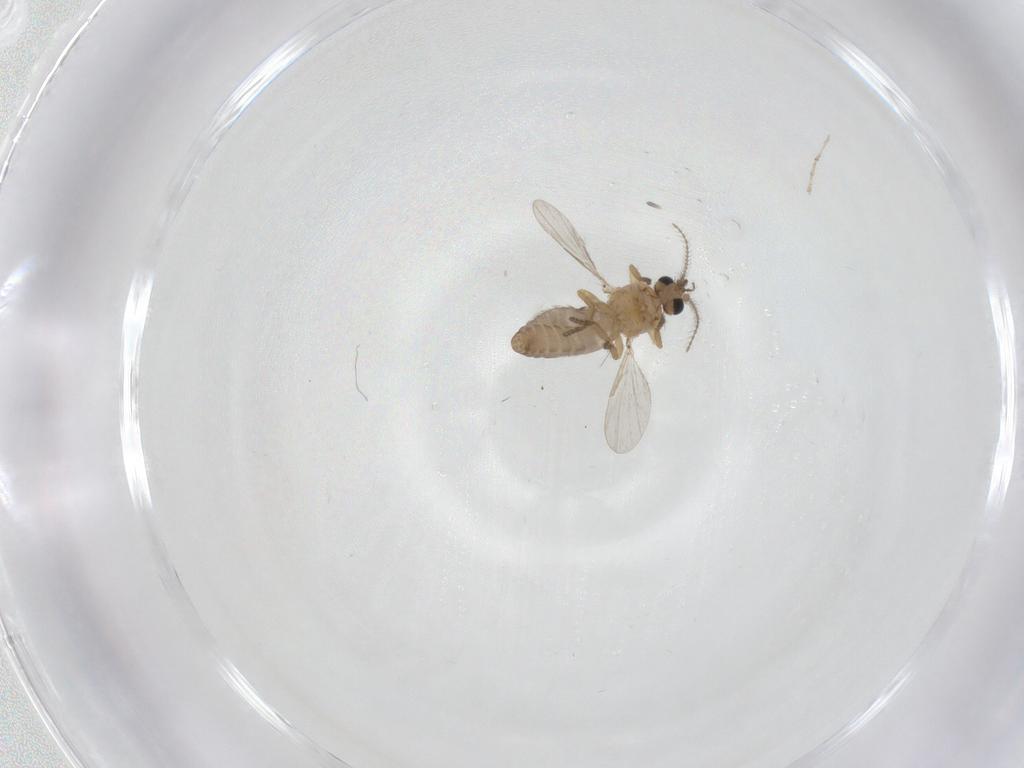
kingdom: Animalia
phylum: Arthropoda
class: Insecta
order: Diptera
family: Ceratopogonidae
